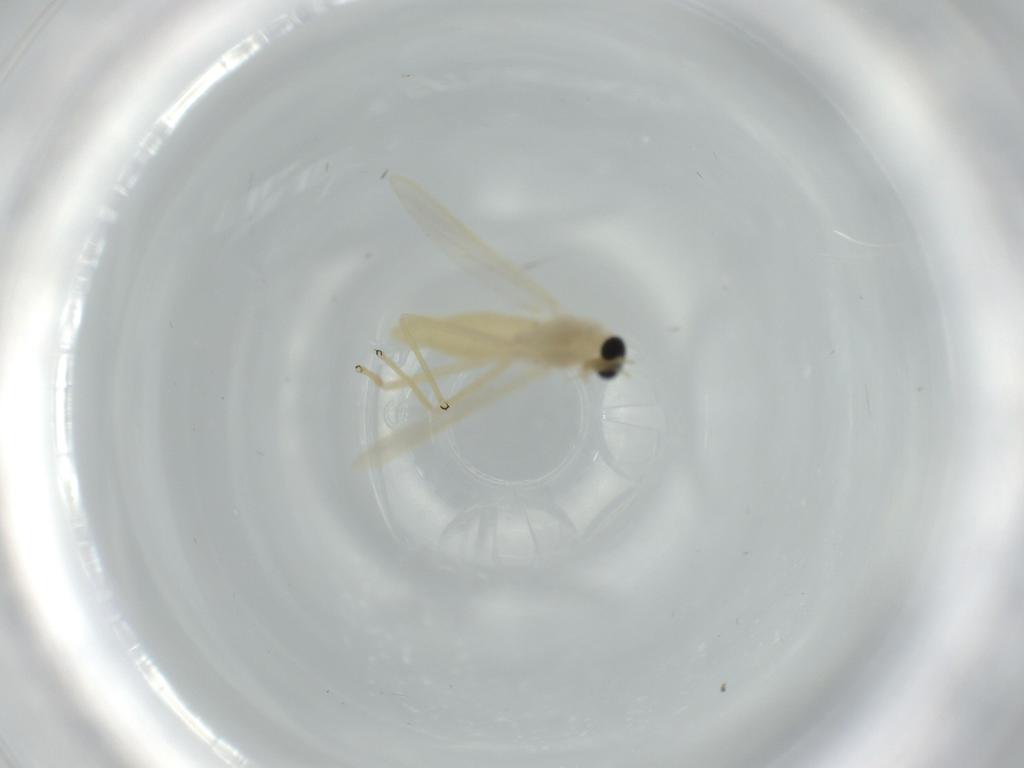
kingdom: Animalia
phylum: Arthropoda
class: Insecta
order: Diptera
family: Chironomidae
